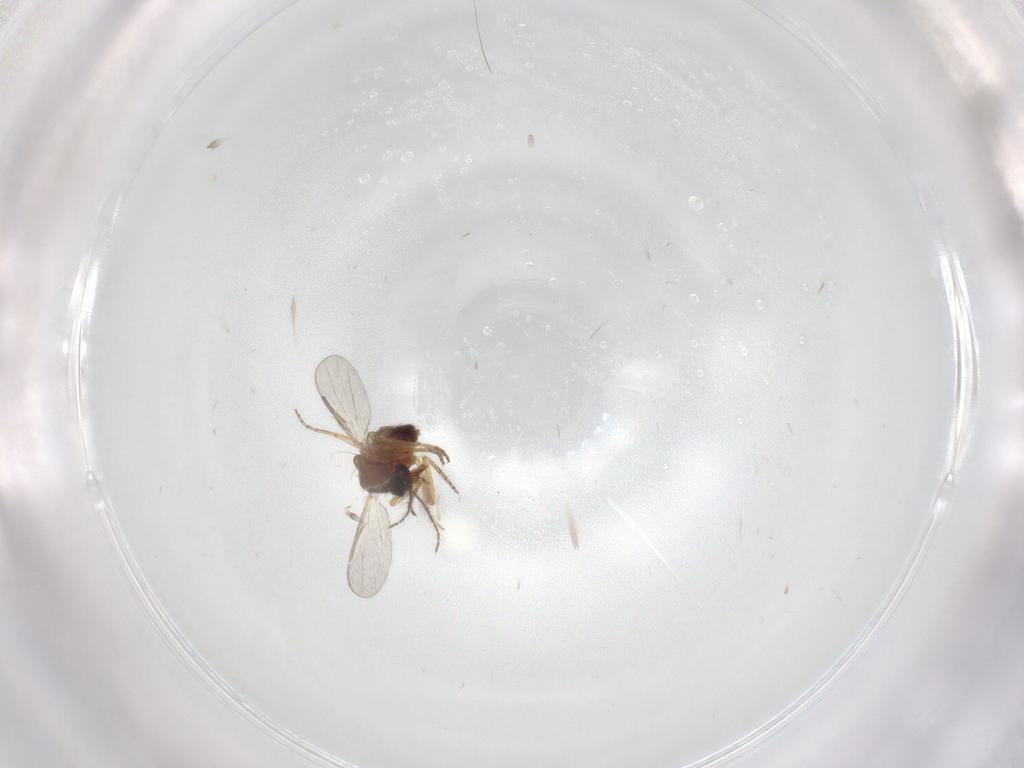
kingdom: Animalia
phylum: Arthropoda
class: Insecta
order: Diptera
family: Ceratopogonidae
